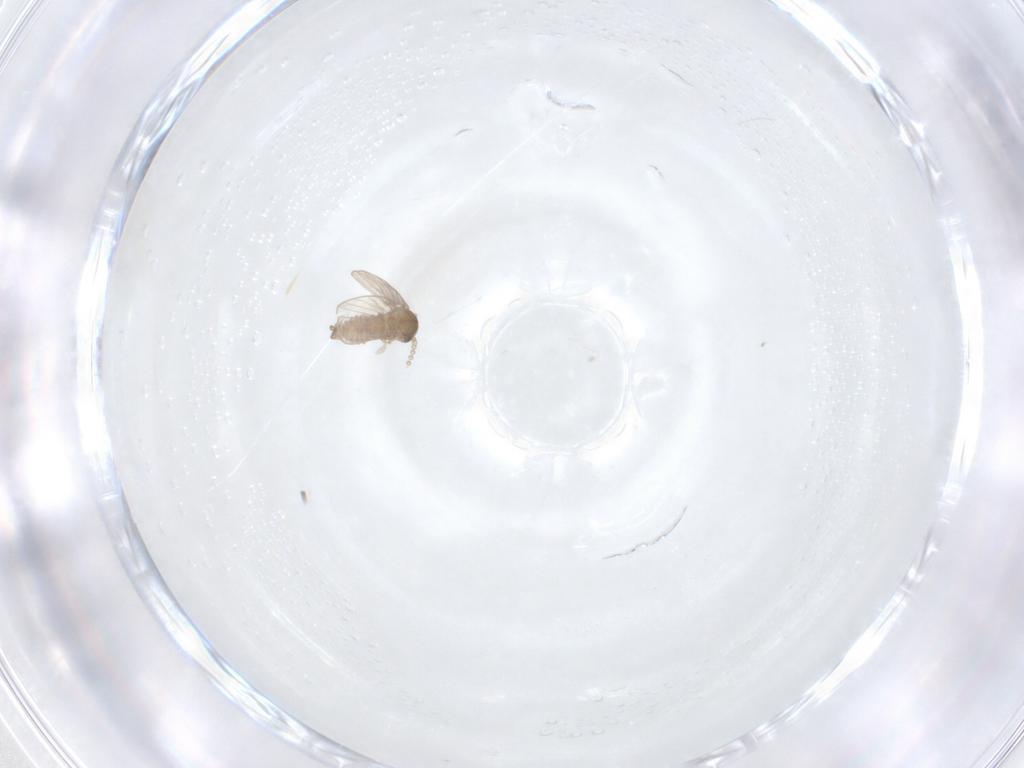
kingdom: Animalia
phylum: Arthropoda
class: Insecta
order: Diptera
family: Psychodidae
